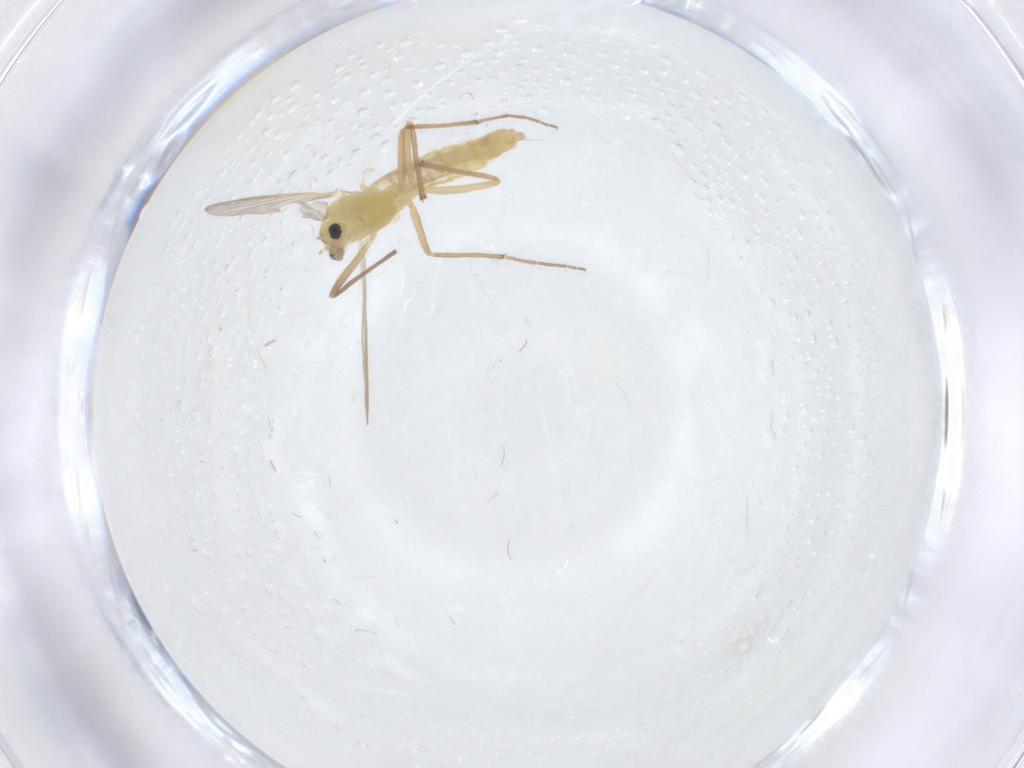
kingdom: Animalia
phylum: Arthropoda
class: Insecta
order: Diptera
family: Chironomidae
